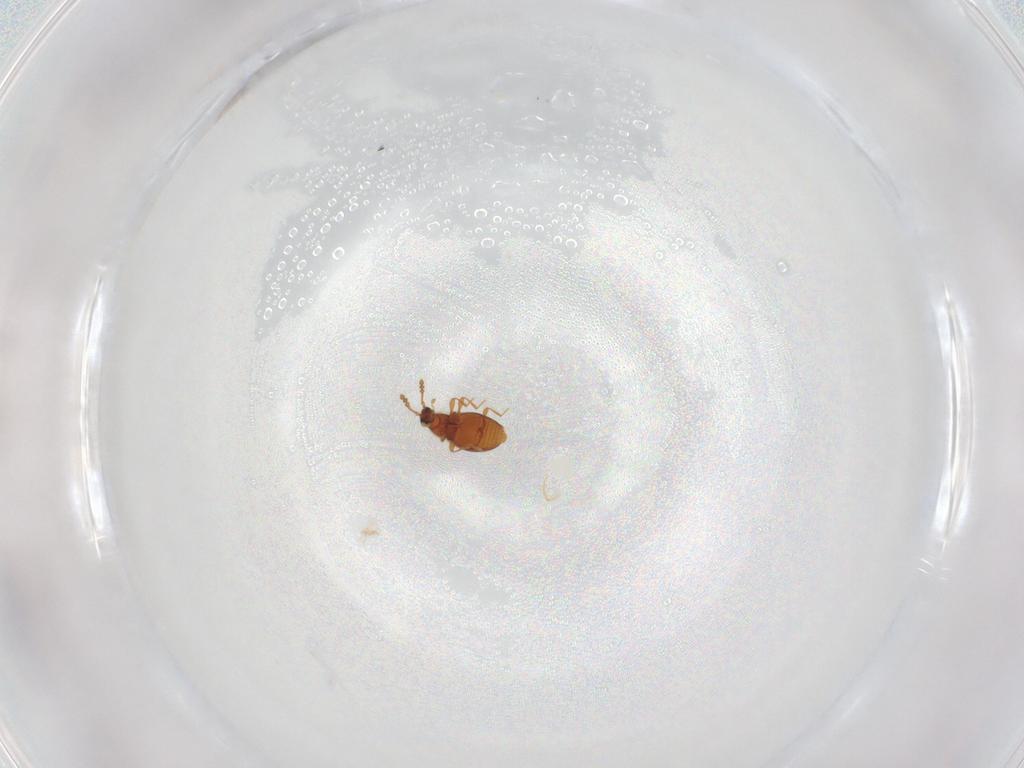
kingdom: Animalia
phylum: Arthropoda
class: Insecta
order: Coleoptera
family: Staphylinidae
